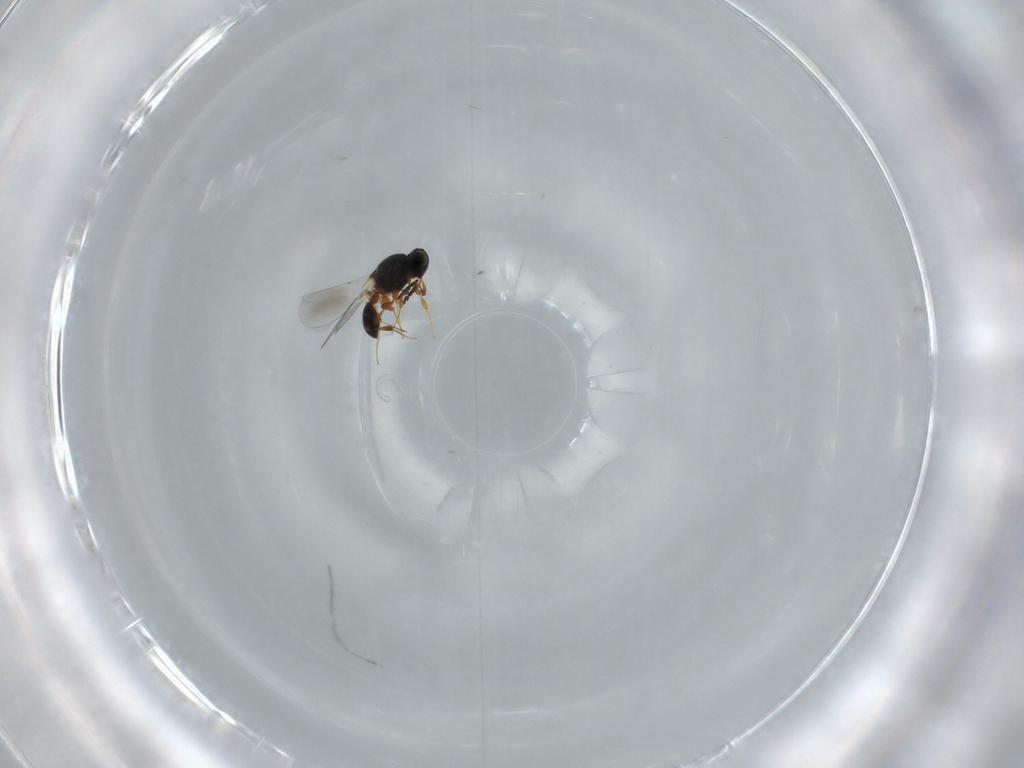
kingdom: Animalia
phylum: Arthropoda
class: Insecta
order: Hymenoptera
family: Platygastridae
